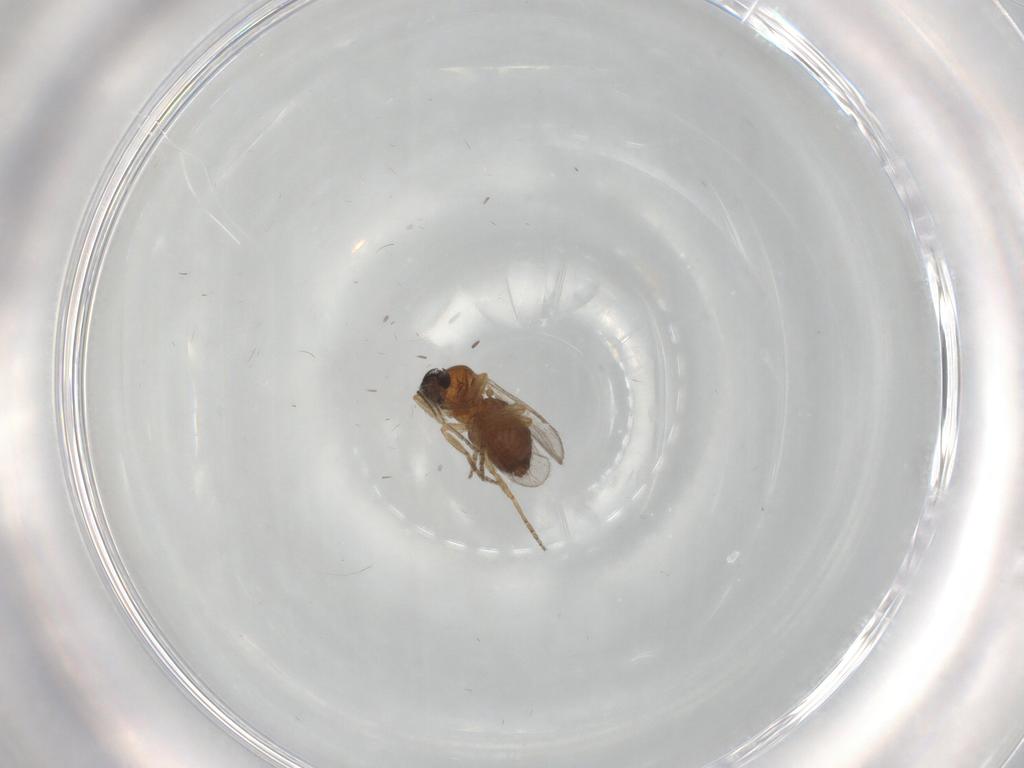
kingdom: Animalia
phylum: Arthropoda
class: Insecta
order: Diptera
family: Ceratopogonidae
